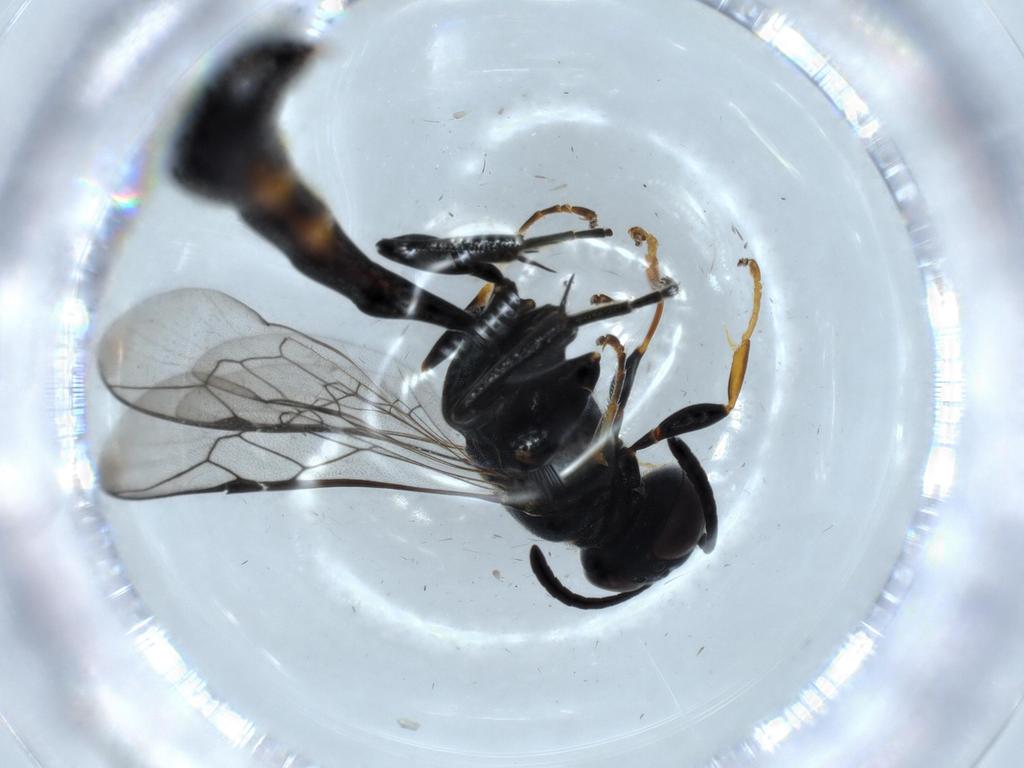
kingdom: Animalia
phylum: Arthropoda
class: Insecta
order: Hymenoptera
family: Crabronidae
